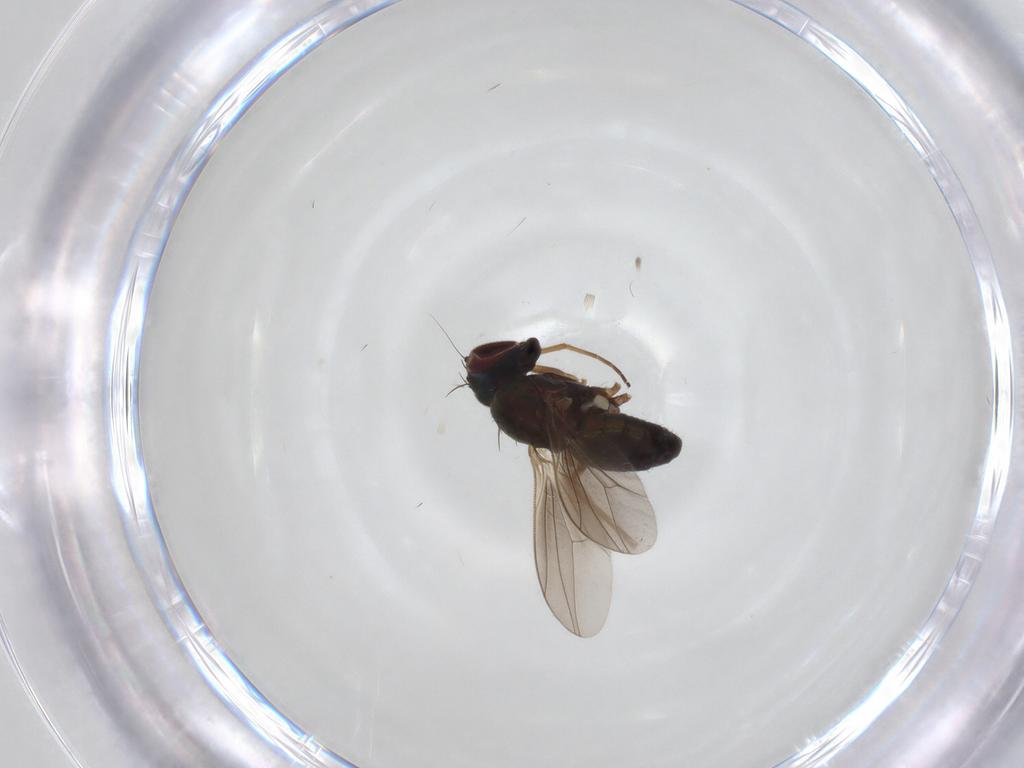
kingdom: Animalia
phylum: Arthropoda
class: Insecta
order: Diptera
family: Dolichopodidae
